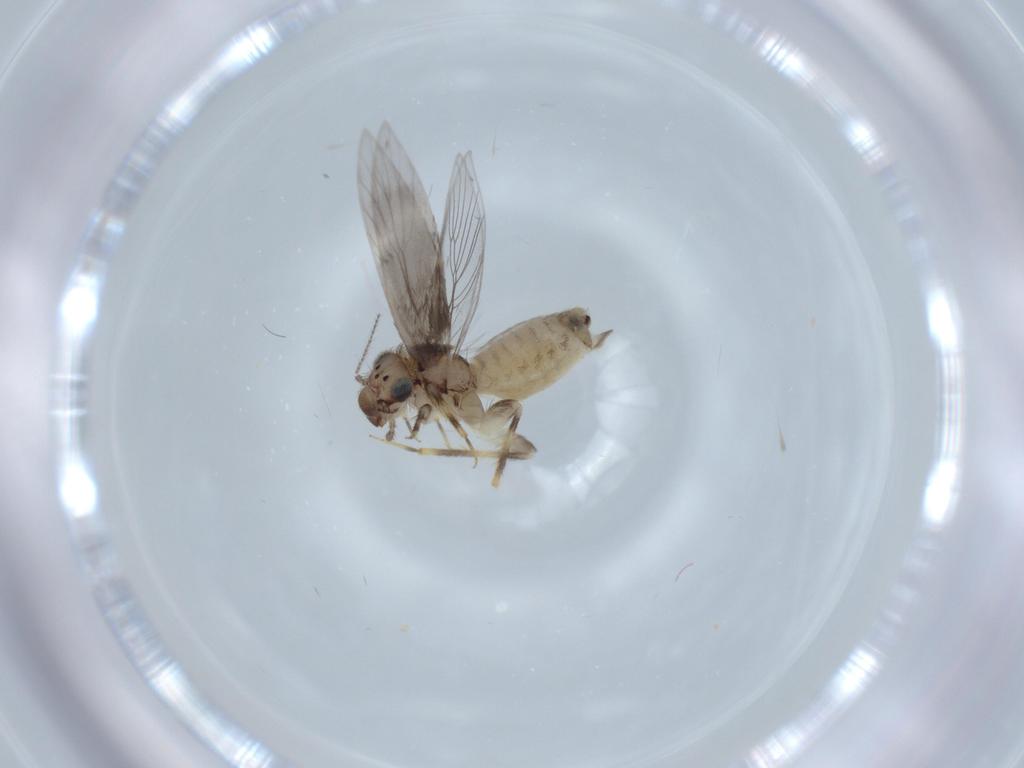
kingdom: Animalia
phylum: Arthropoda
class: Insecta
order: Psocodea
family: Lepidopsocidae
